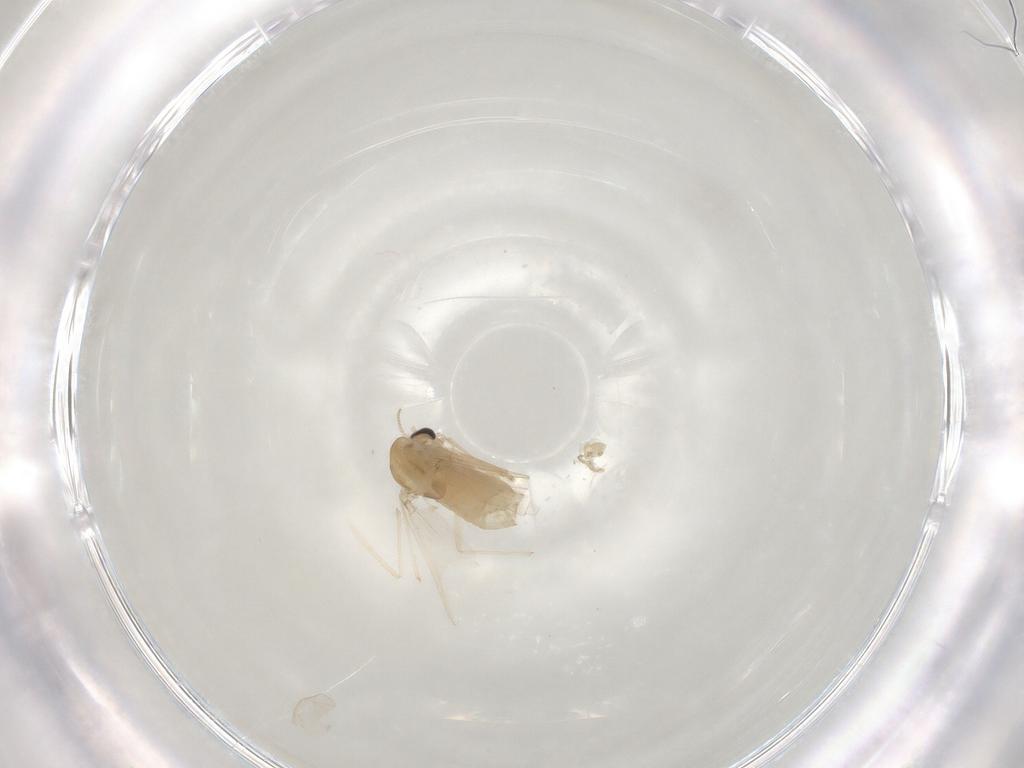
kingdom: Animalia
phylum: Arthropoda
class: Insecta
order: Diptera
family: Chironomidae
